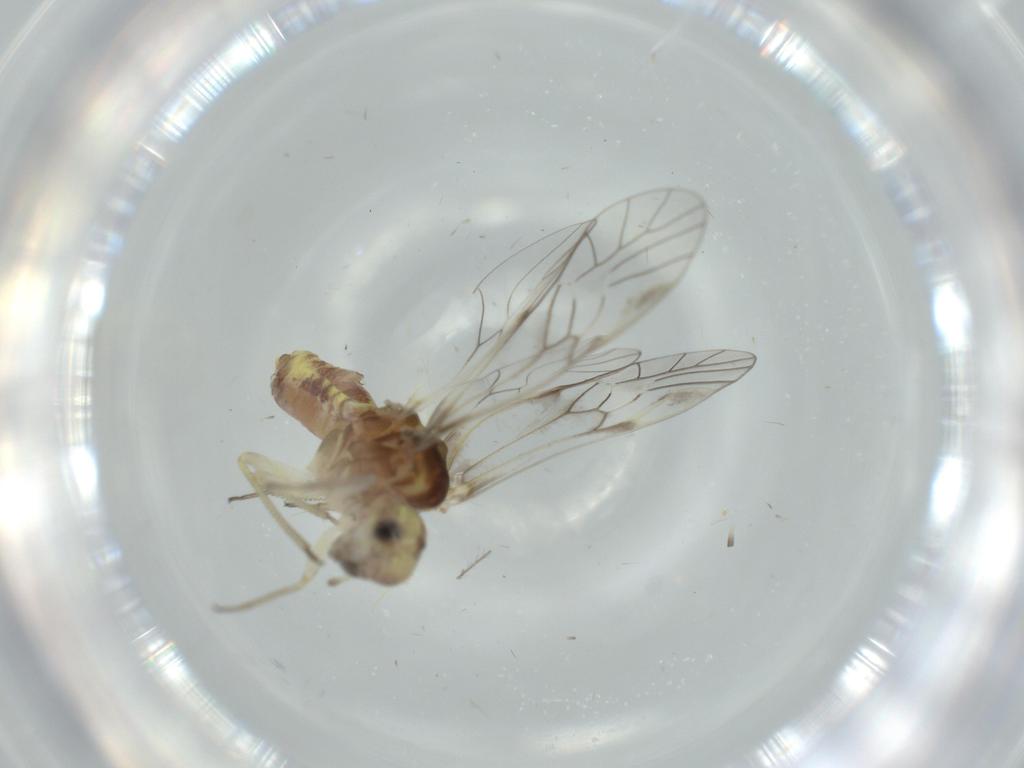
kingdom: Animalia
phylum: Arthropoda
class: Insecta
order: Psocodea
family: Psocidae
